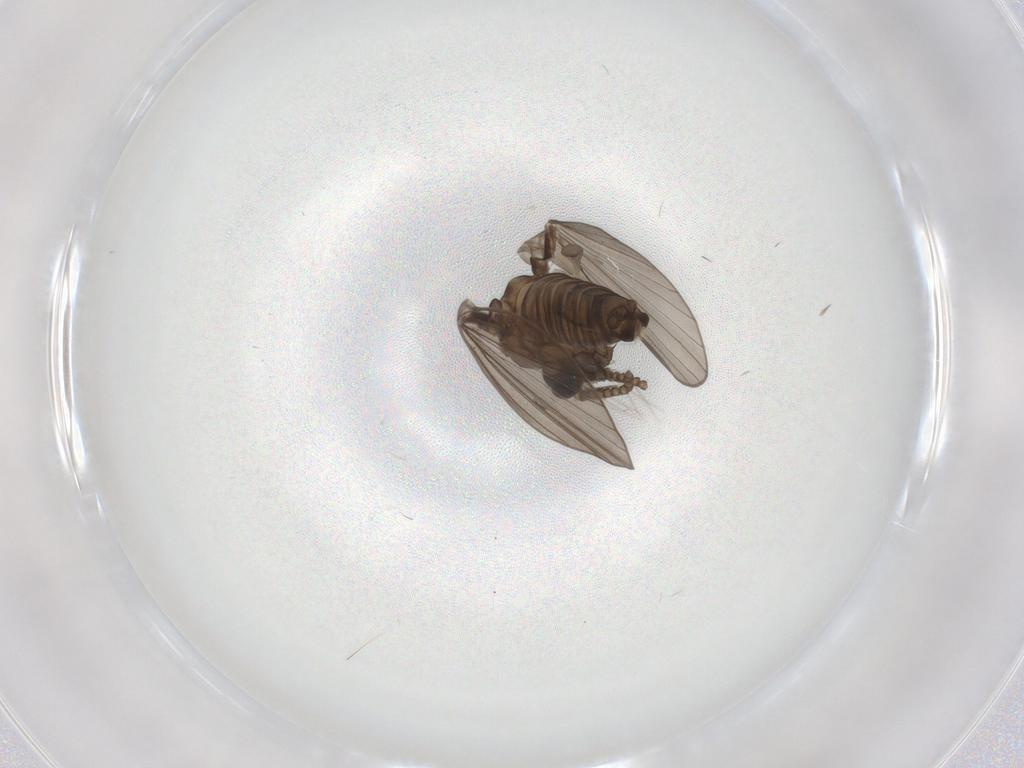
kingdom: Animalia
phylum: Arthropoda
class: Insecta
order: Diptera
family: Psychodidae
